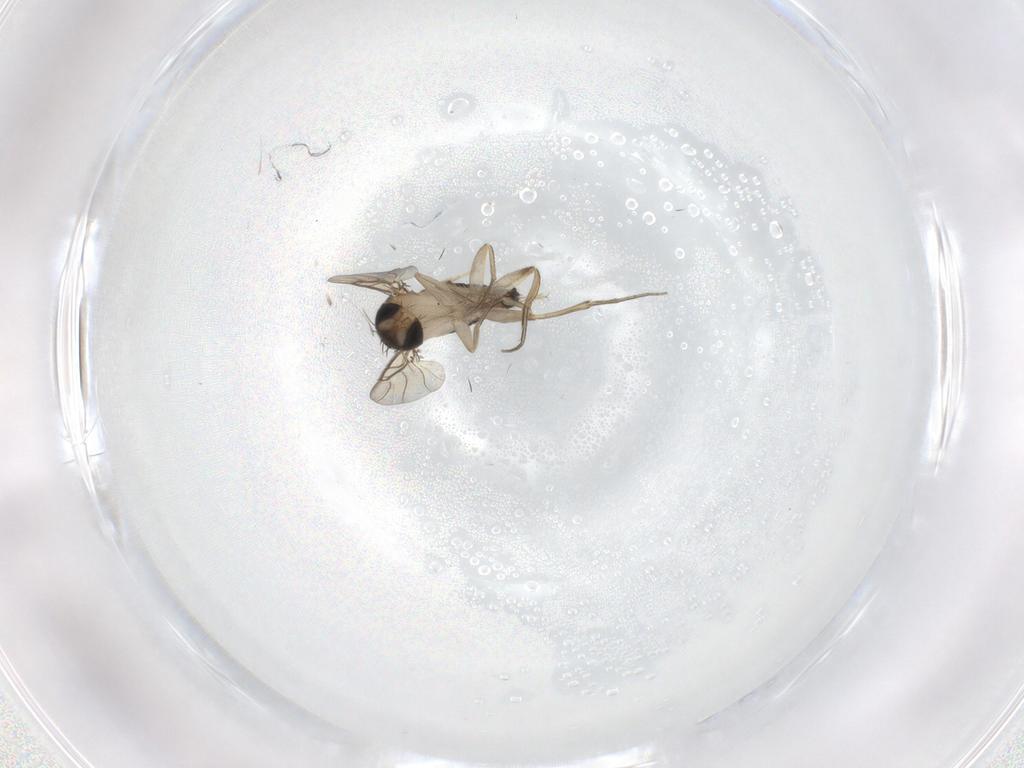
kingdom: Animalia
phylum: Arthropoda
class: Insecta
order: Diptera
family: Phoridae
